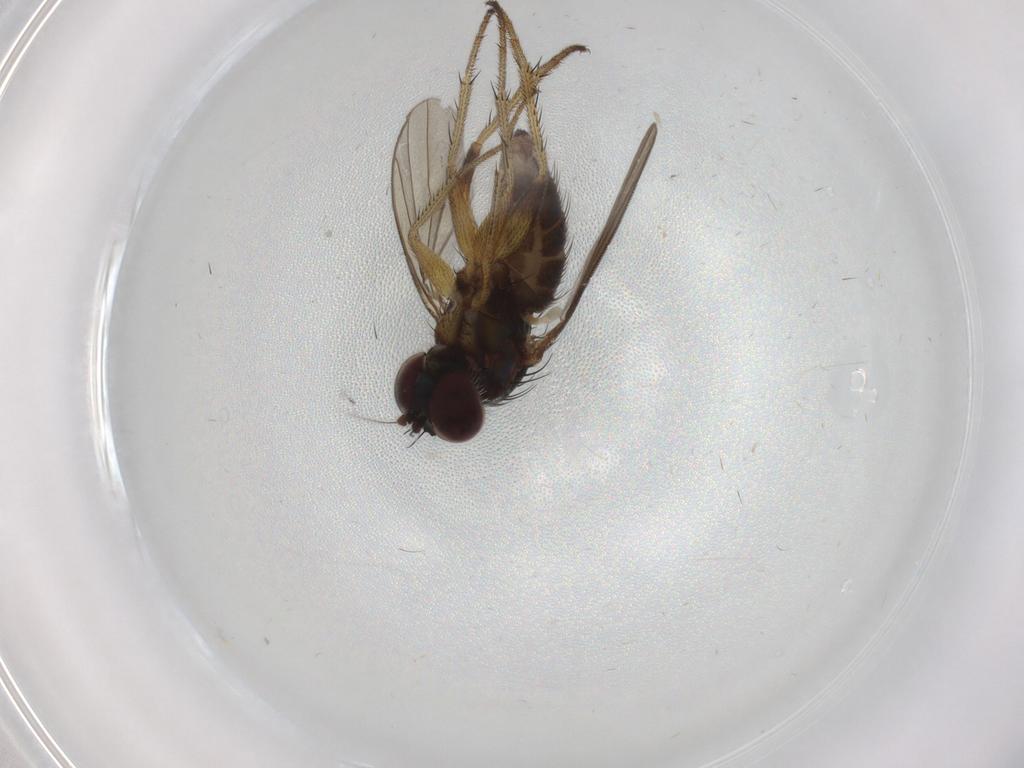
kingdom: Animalia
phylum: Arthropoda
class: Insecta
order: Diptera
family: Dolichopodidae
